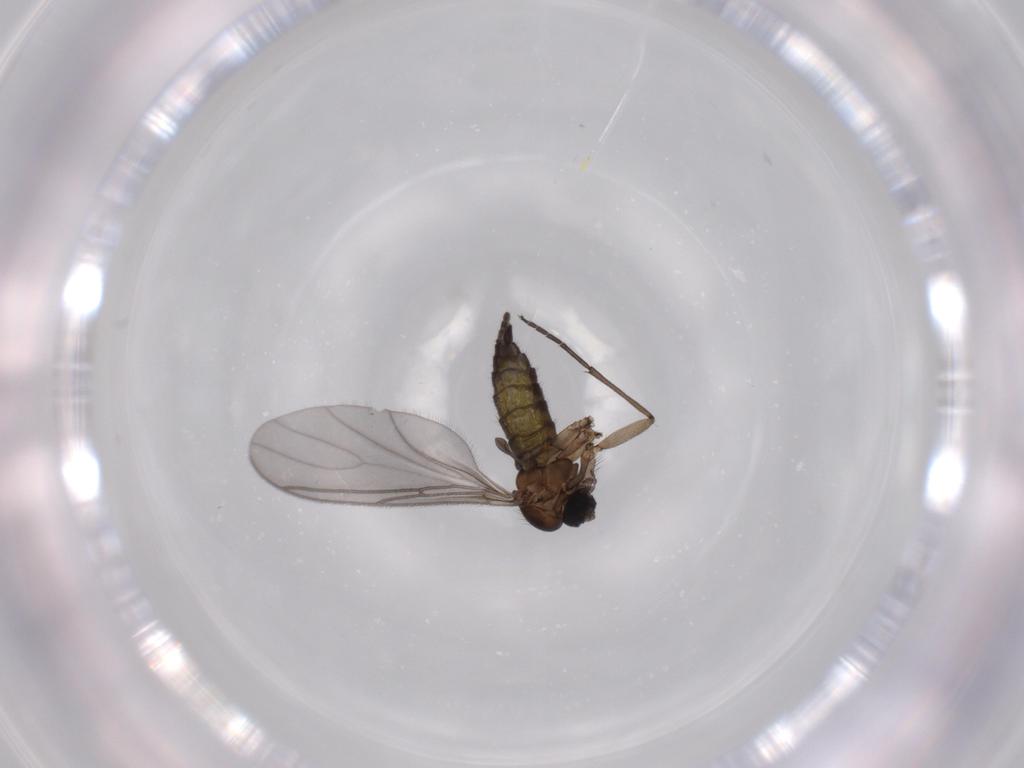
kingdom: Animalia
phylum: Arthropoda
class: Insecta
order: Diptera
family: Sciaridae
